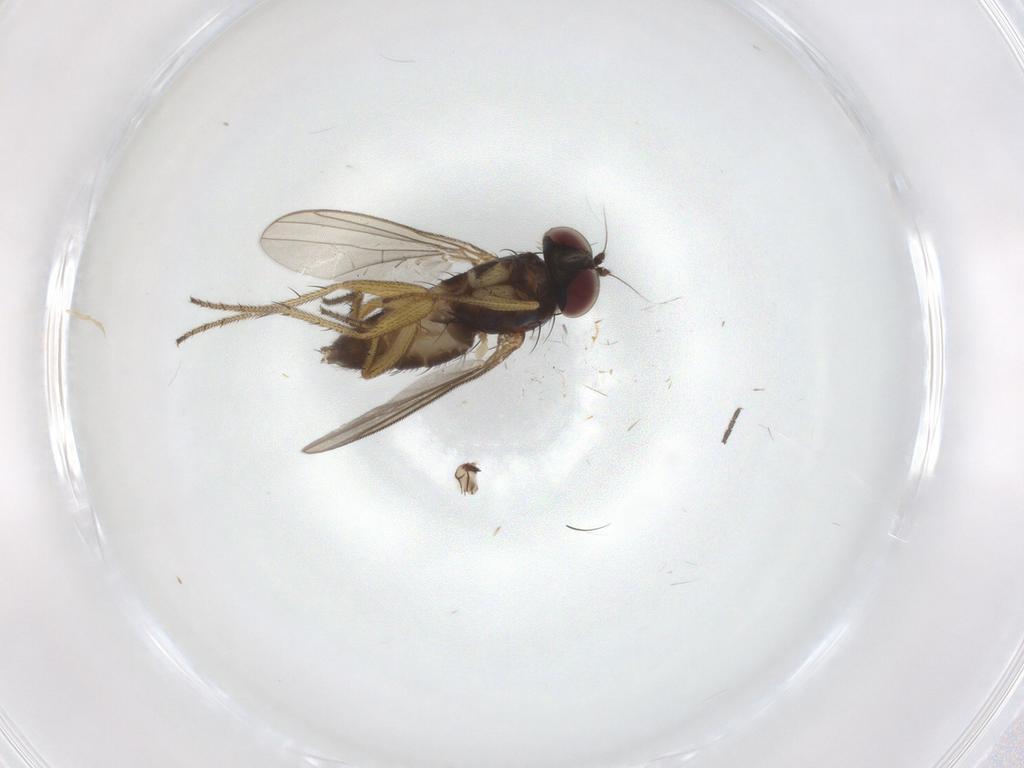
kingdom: Animalia
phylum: Arthropoda
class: Insecta
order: Diptera
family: Sciaridae
